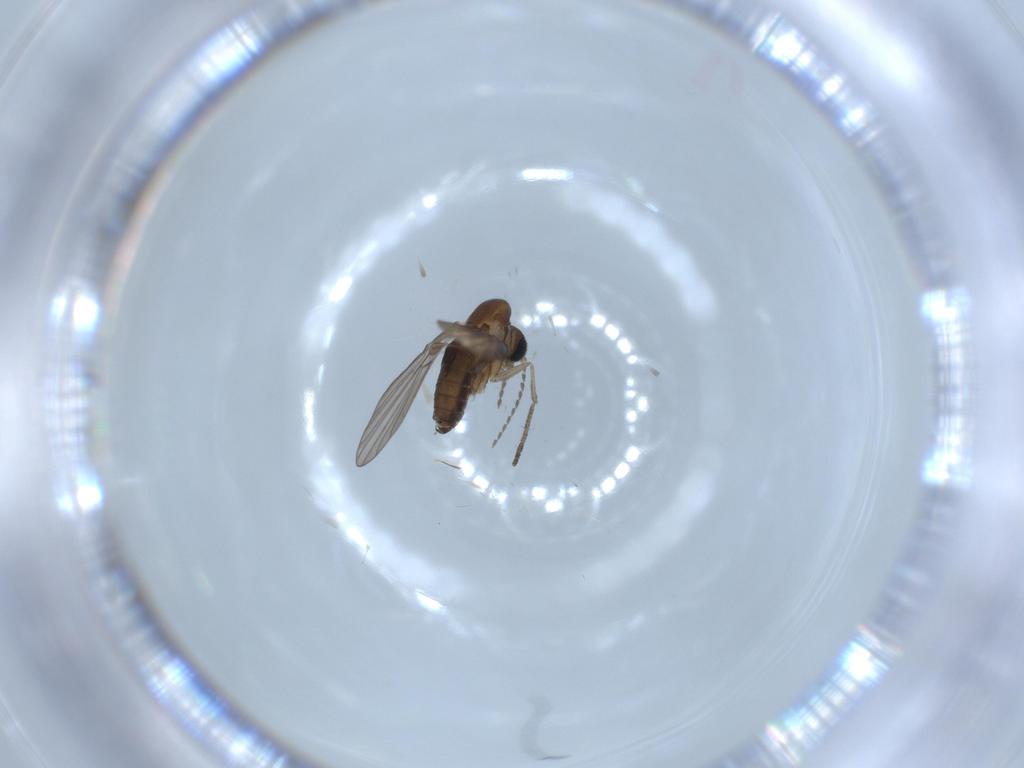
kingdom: Animalia
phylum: Arthropoda
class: Insecta
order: Diptera
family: Psychodidae
